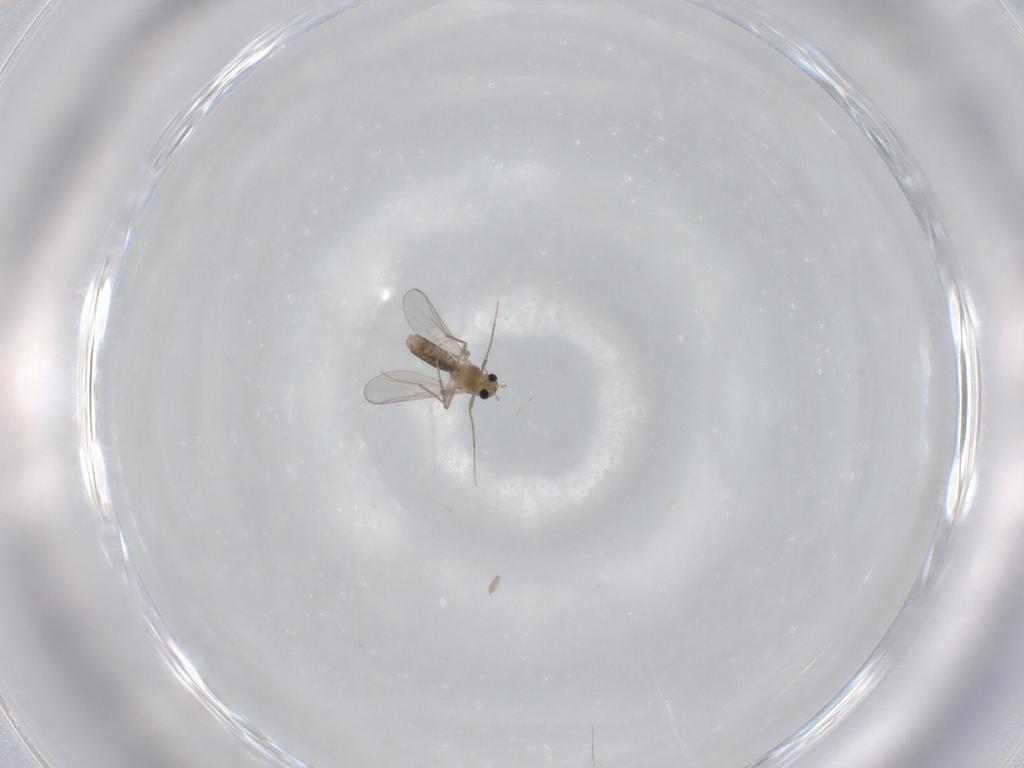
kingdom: Animalia
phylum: Arthropoda
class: Insecta
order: Diptera
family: Chironomidae
